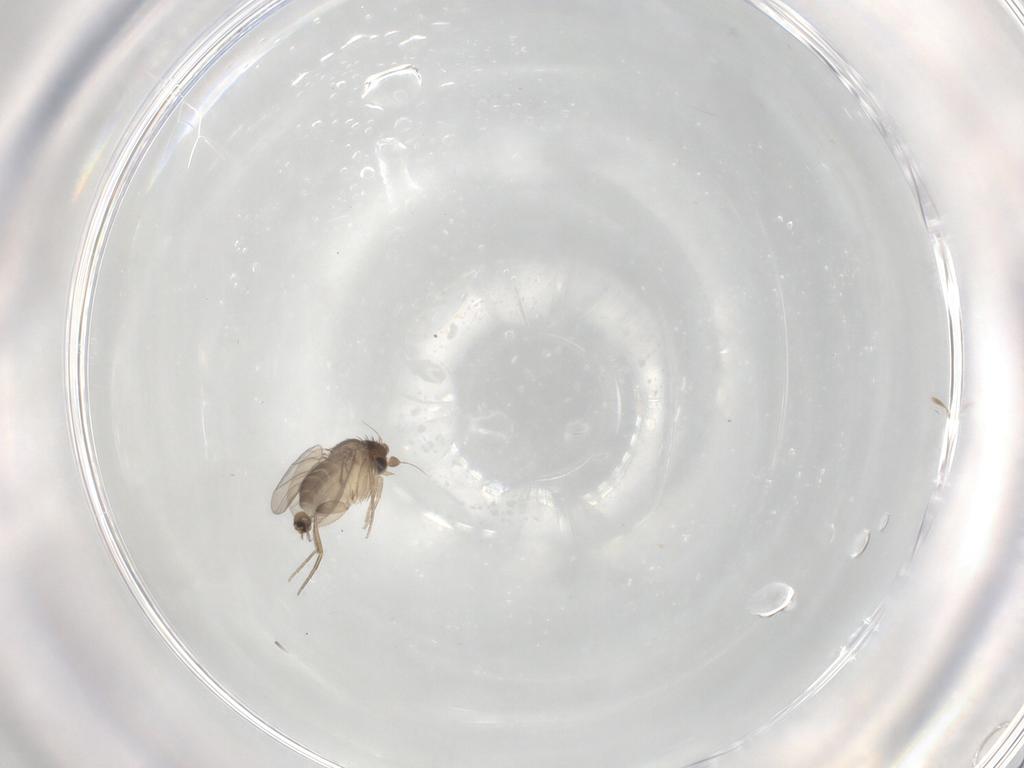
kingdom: Animalia
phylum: Arthropoda
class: Insecta
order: Diptera
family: Ceratopogonidae
